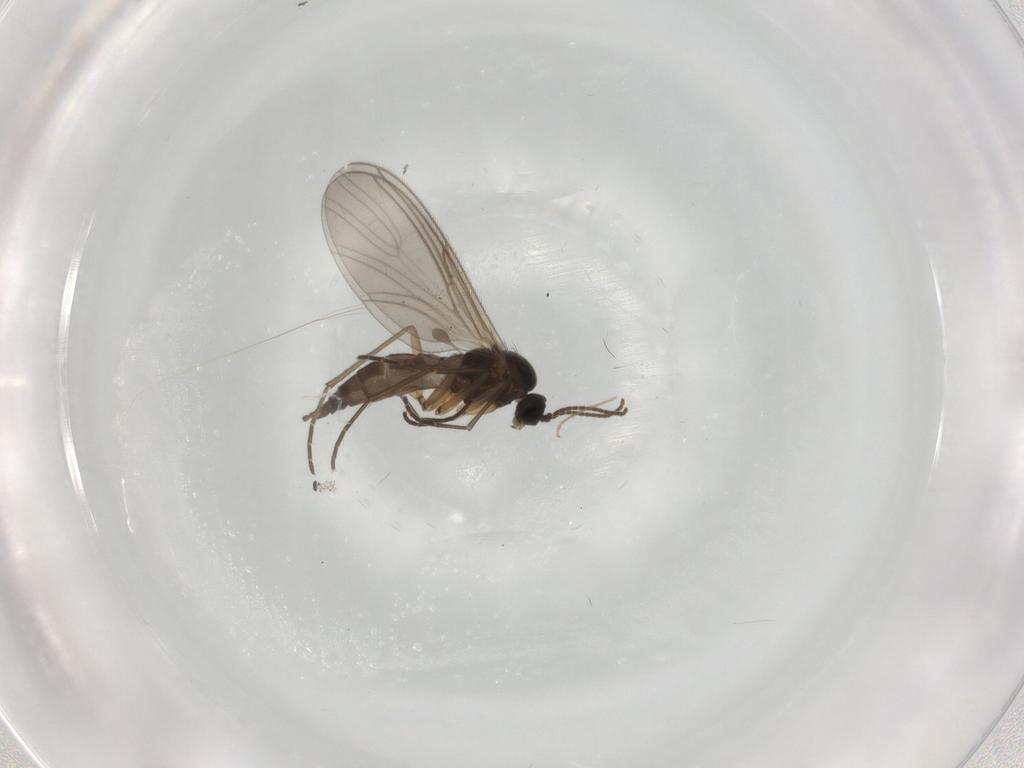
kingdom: Animalia
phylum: Arthropoda
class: Insecta
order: Diptera
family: Sciaridae
